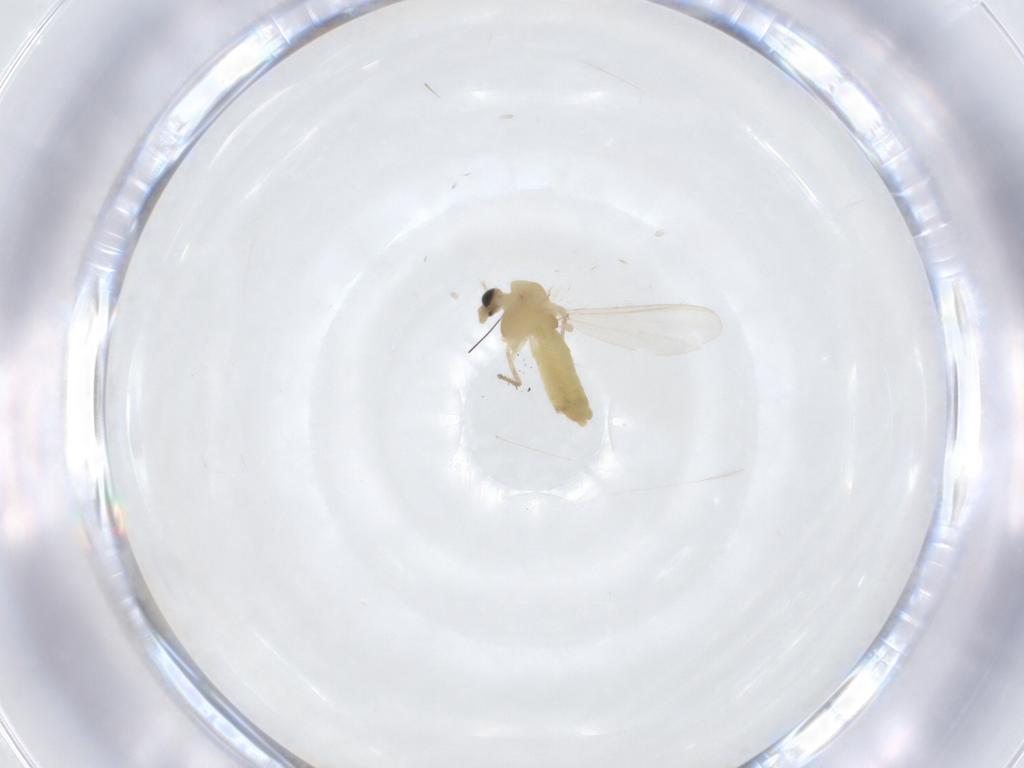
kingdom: Animalia
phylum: Arthropoda
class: Insecta
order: Diptera
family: Chironomidae
